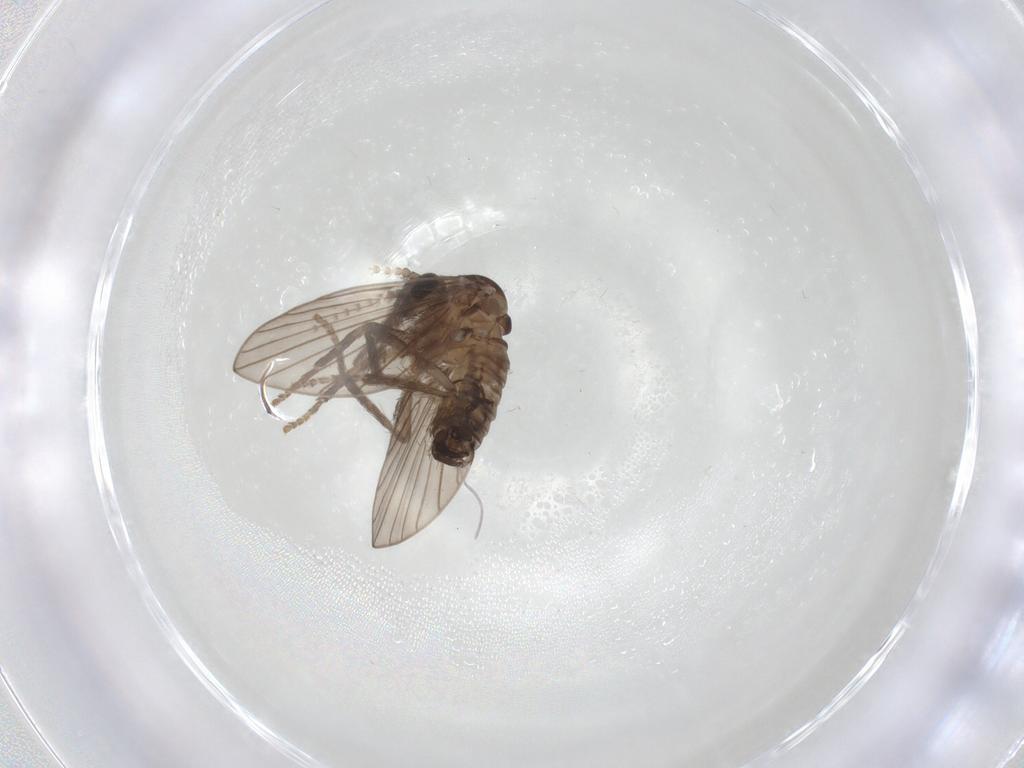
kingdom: Animalia
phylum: Arthropoda
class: Insecta
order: Diptera
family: Psychodidae
